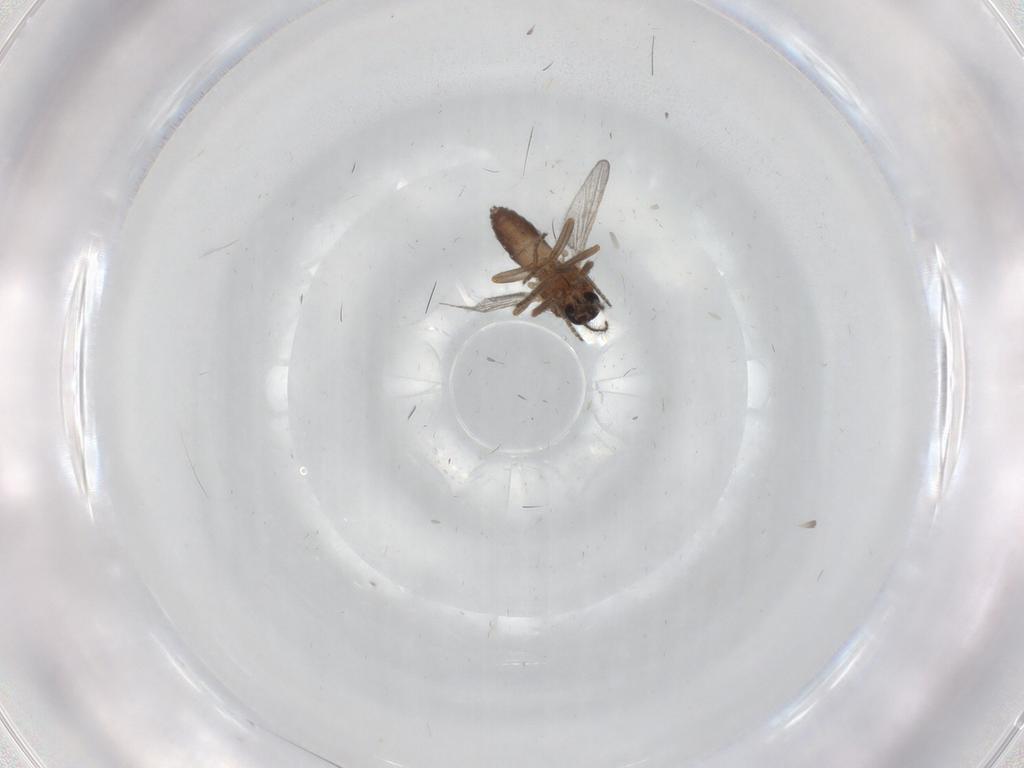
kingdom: Animalia
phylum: Arthropoda
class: Insecta
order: Diptera
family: Ceratopogonidae
